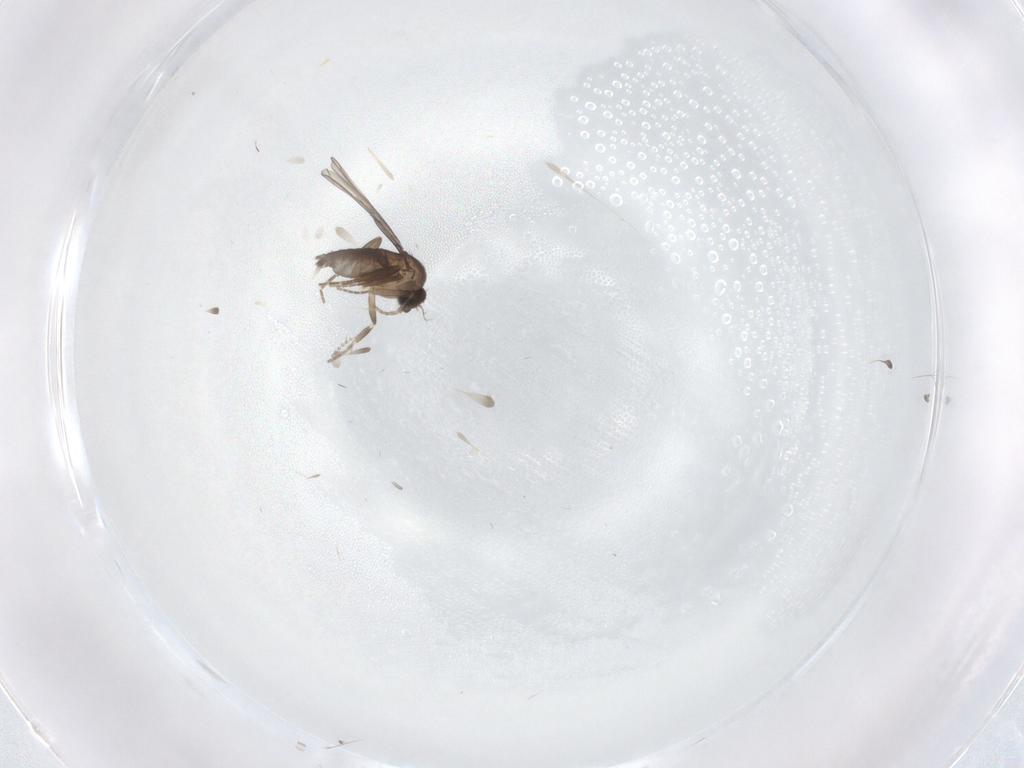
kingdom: Animalia
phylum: Arthropoda
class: Insecta
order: Diptera
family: Phoridae
